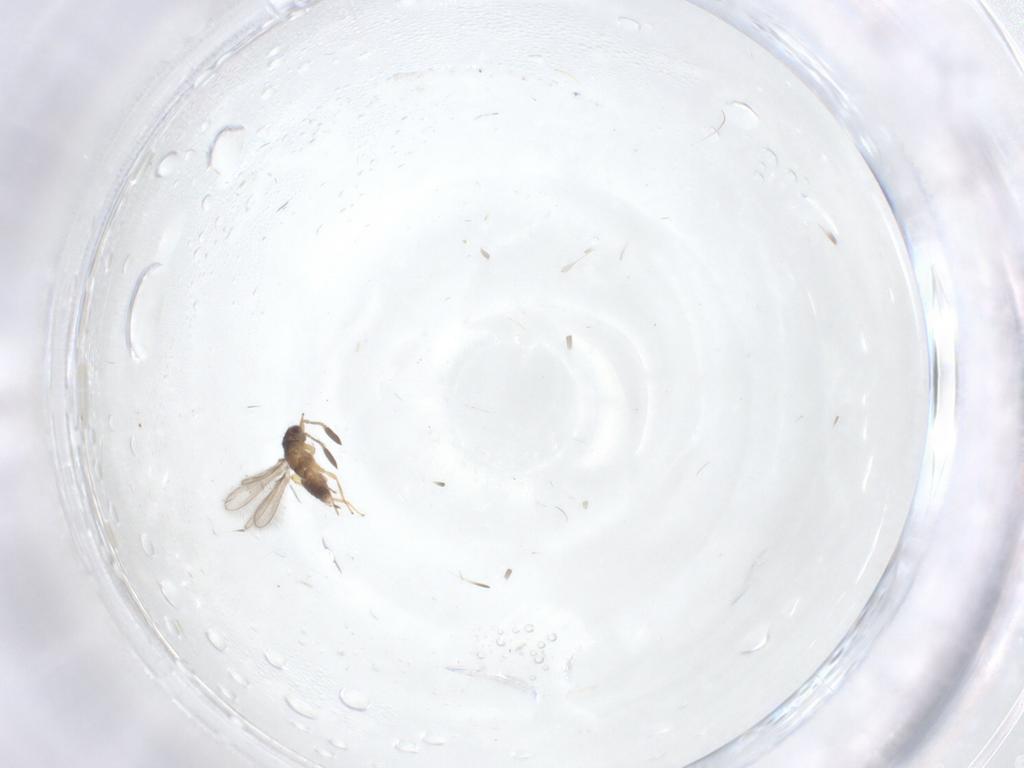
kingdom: Animalia
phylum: Arthropoda
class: Insecta
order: Hymenoptera
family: Mymaridae
